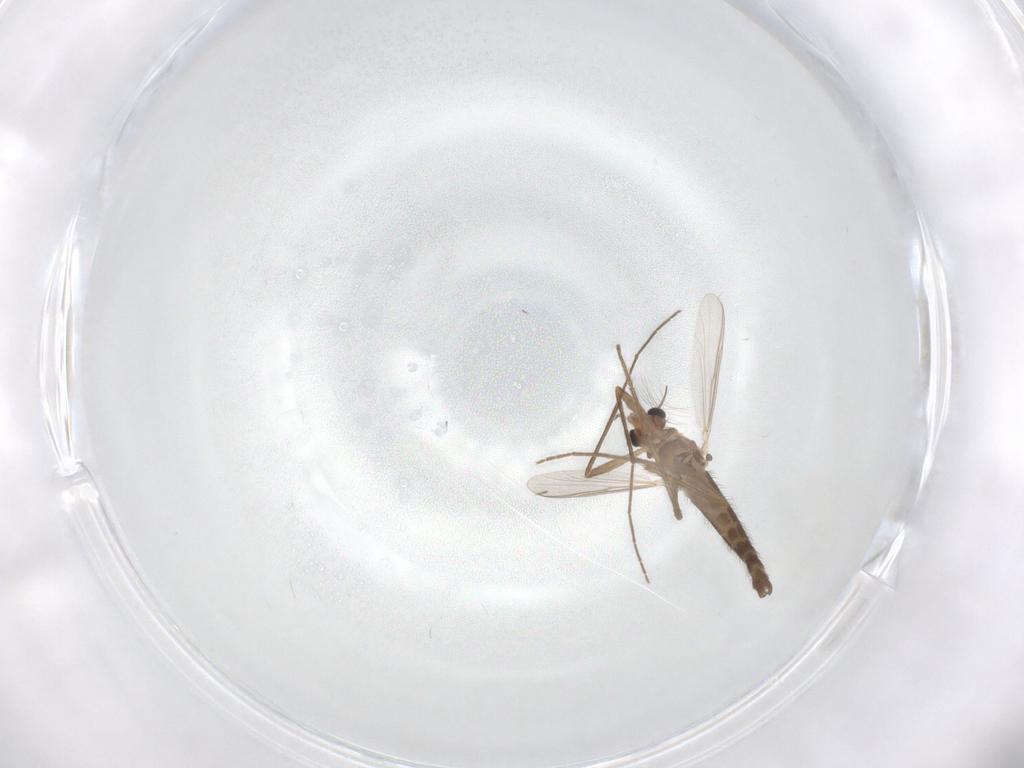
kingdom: Animalia
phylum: Arthropoda
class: Insecta
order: Diptera
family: Chironomidae
